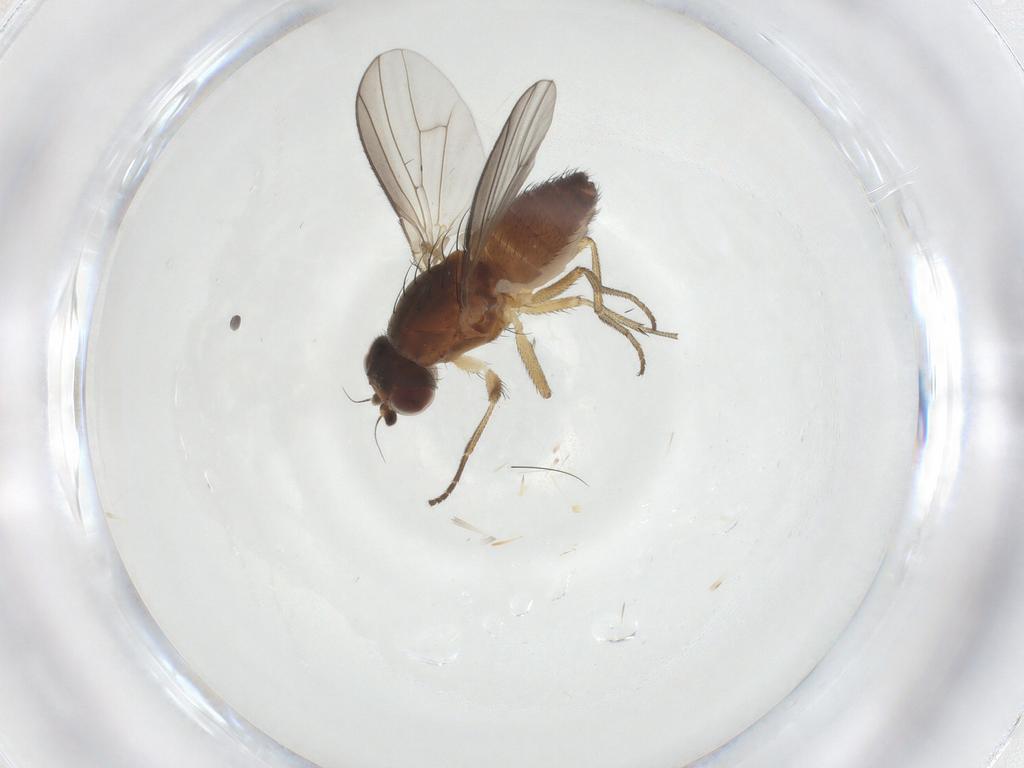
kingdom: Animalia
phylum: Arthropoda
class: Insecta
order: Diptera
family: Heleomyzidae
